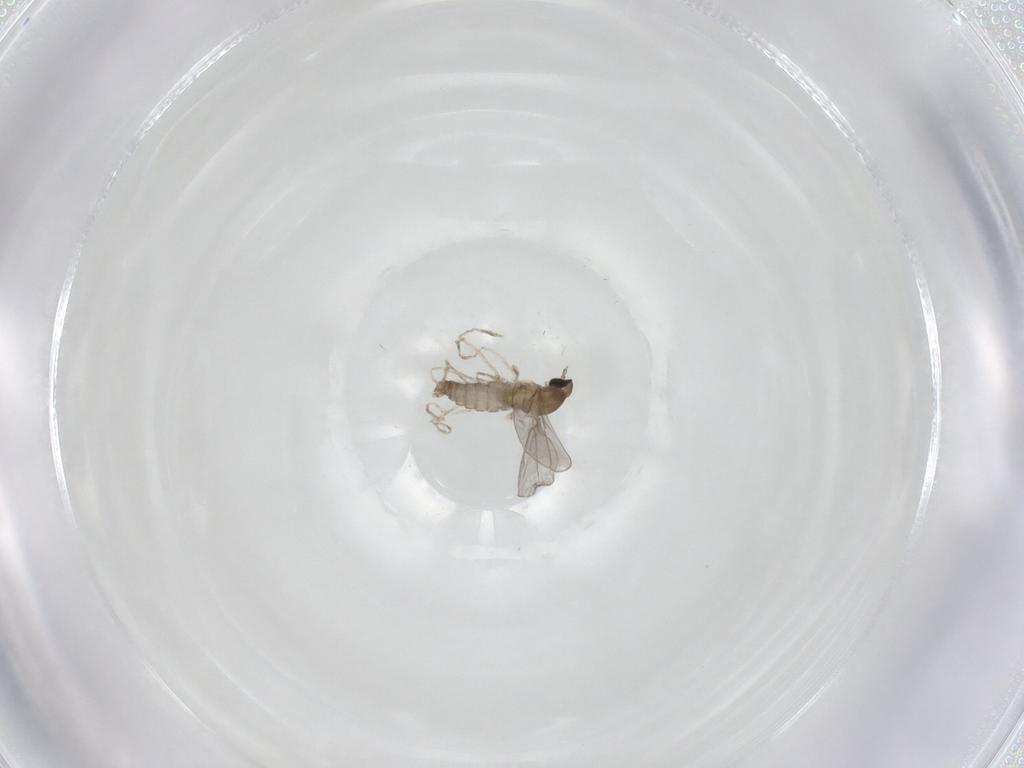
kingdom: Animalia
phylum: Arthropoda
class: Insecta
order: Diptera
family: Cecidomyiidae
